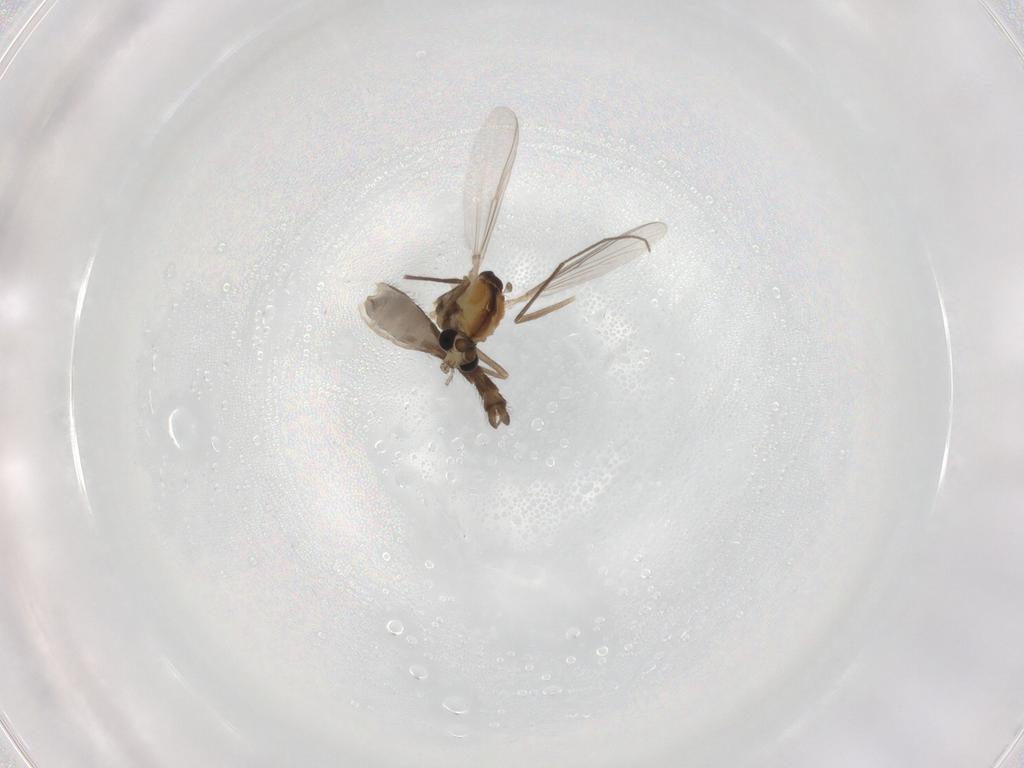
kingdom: Animalia
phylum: Arthropoda
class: Insecta
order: Diptera
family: Chironomidae
